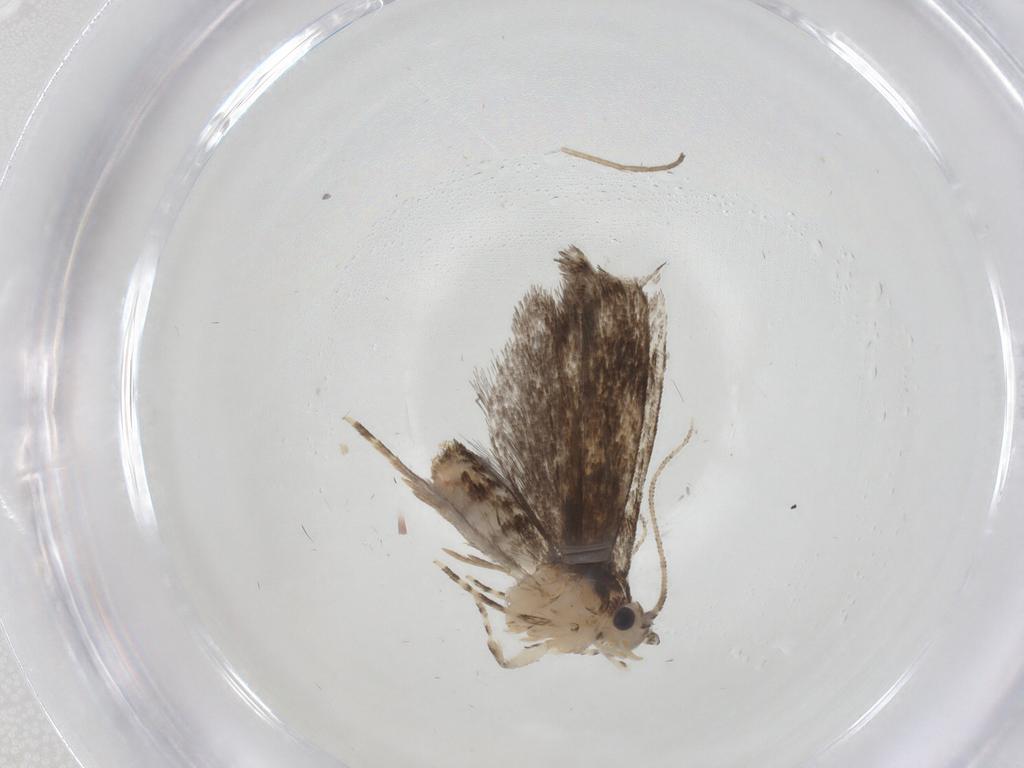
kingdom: Animalia
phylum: Arthropoda
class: Insecta
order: Lepidoptera
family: Tineidae
